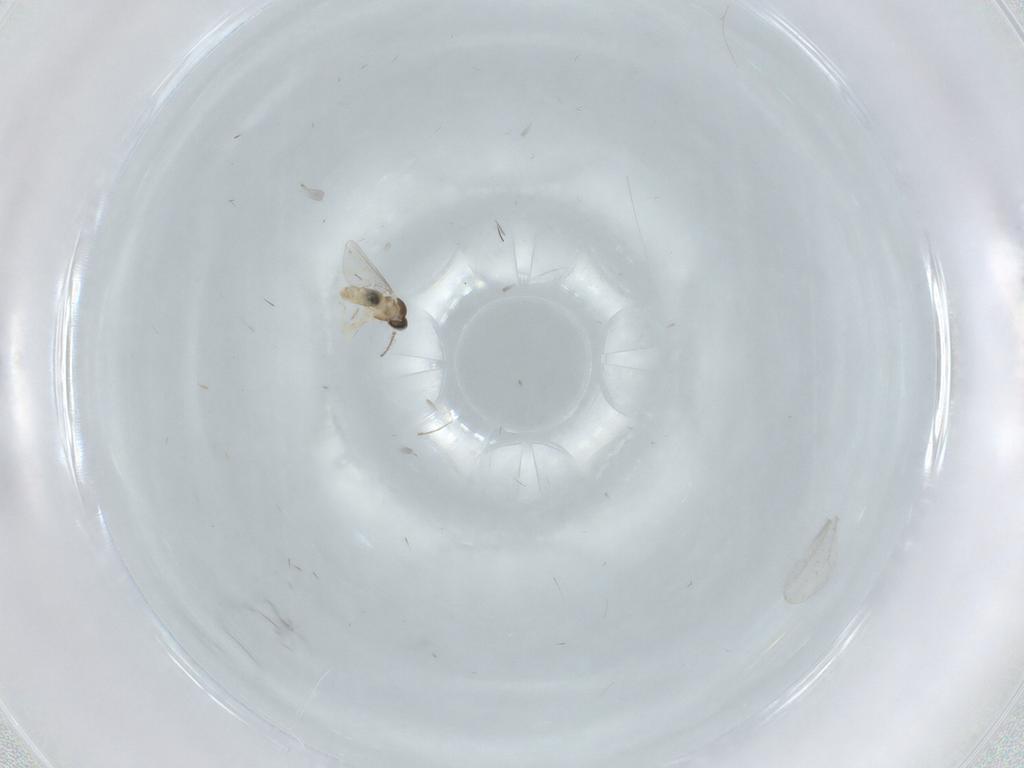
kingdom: Animalia
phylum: Arthropoda
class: Insecta
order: Diptera
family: Cecidomyiidae
